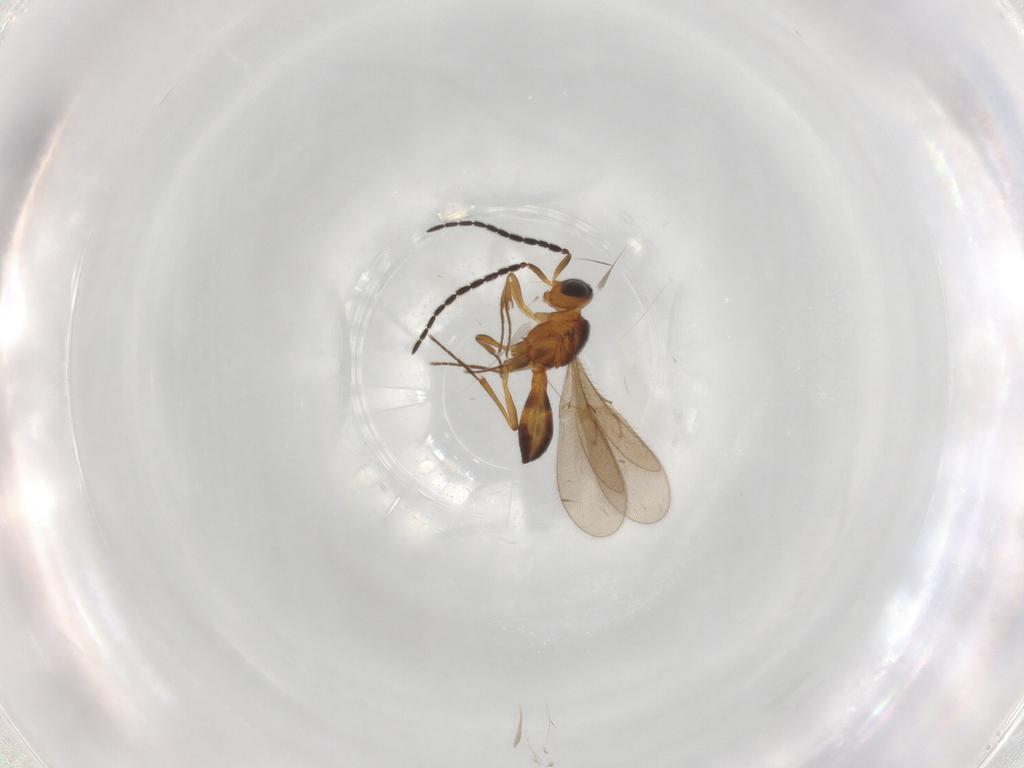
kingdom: Animalia
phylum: Arthropoda
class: Insecta
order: Hymenoptera
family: Scelionidae
